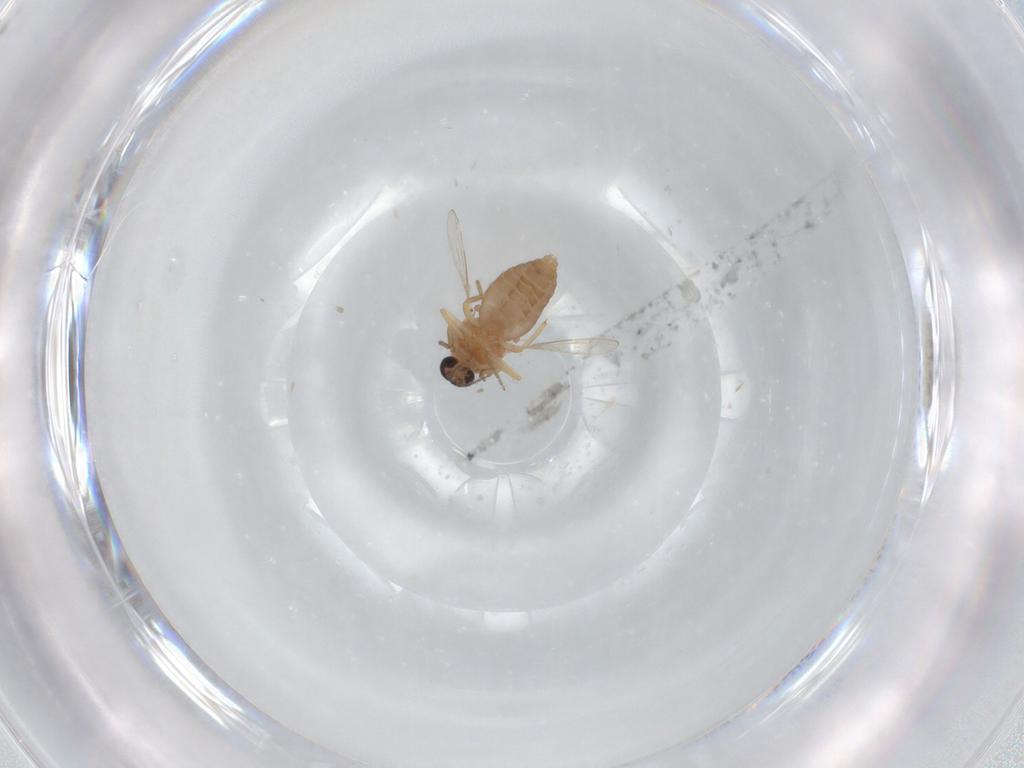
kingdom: Animalia
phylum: Arthropoda
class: Insecta
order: Diptera
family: Ceratopogonidae
